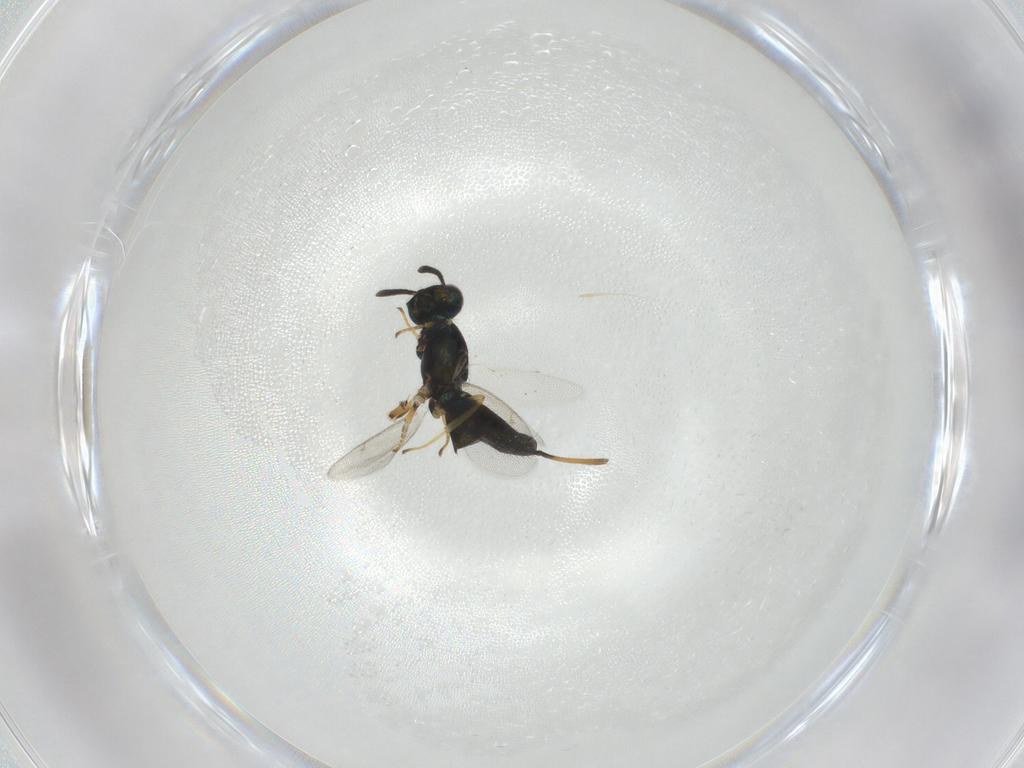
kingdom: Animalia
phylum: Arthropoda
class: Insecta
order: Hymenoptera
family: Eupelmidae
